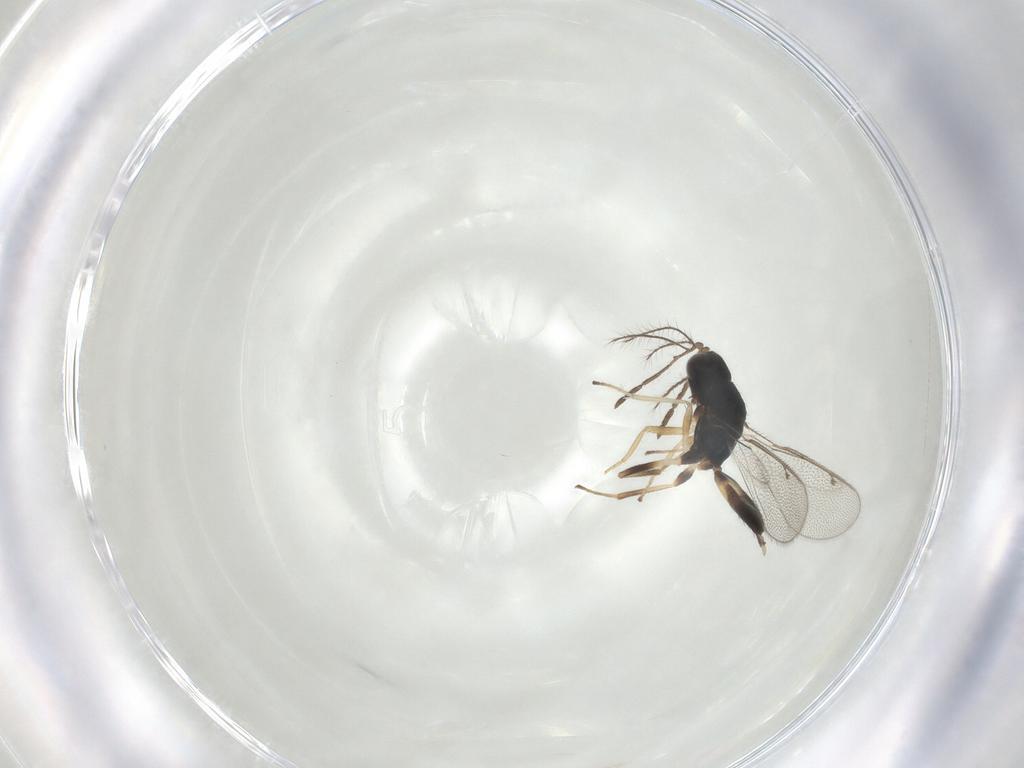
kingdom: Animalia
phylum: Arthropoda
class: Insecta
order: Hymenoptera
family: Eulophidae
